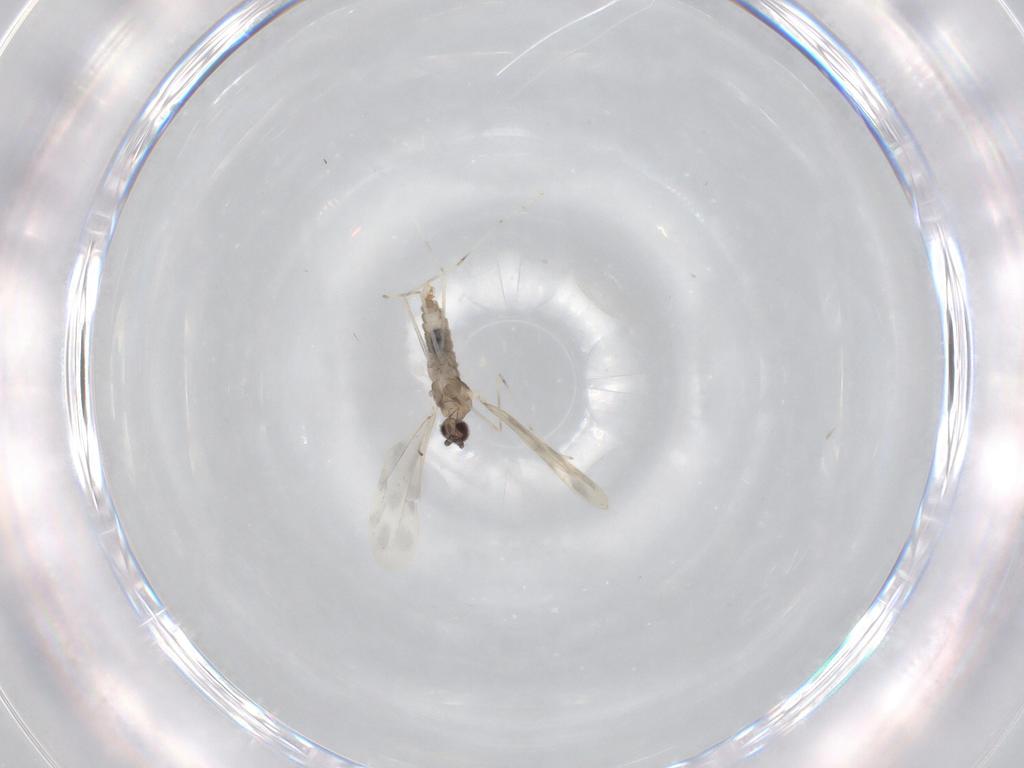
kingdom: Animalia
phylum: Arthropoda
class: Insecta
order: Diptera
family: Cecidomyiidae
